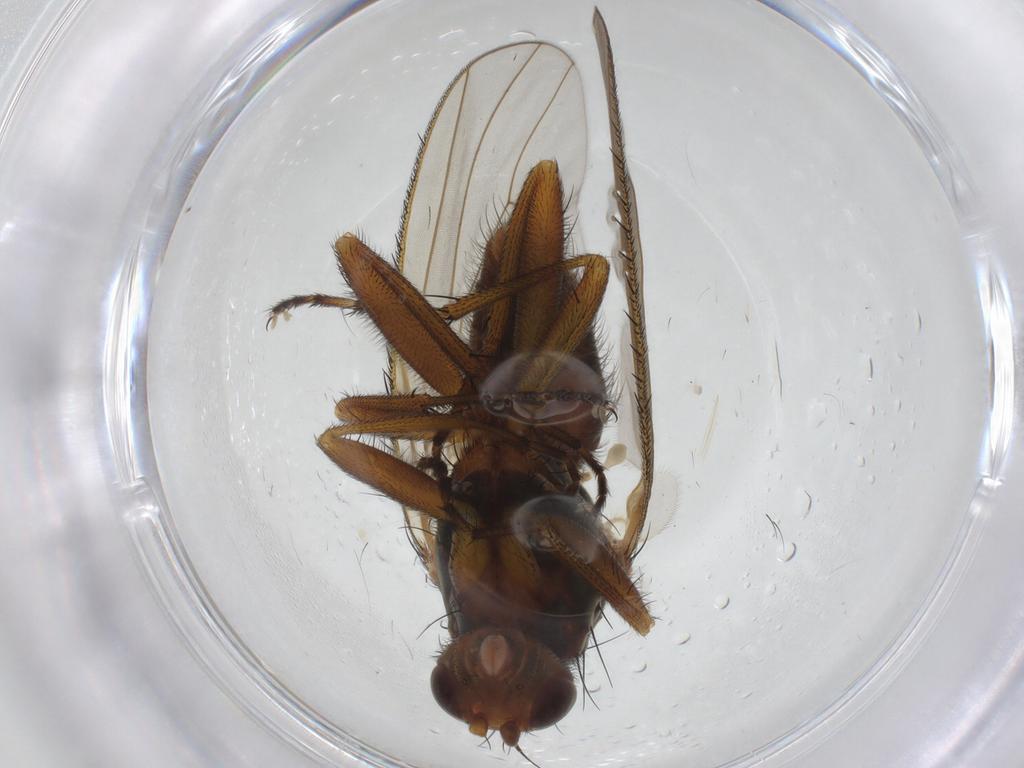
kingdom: Animalia
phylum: Arthropoda
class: Insecta
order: Diptera
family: Heleomyzidae
